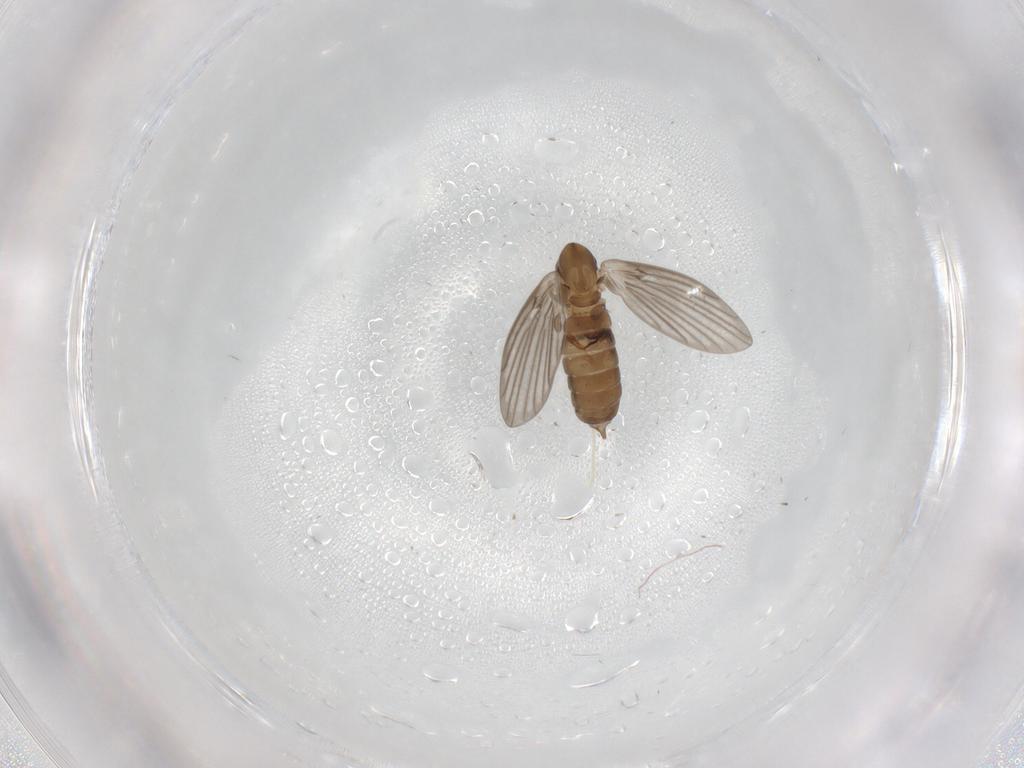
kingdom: Animalia
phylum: Arthropoda
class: Insecta
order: Diptera
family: Psychodidae
